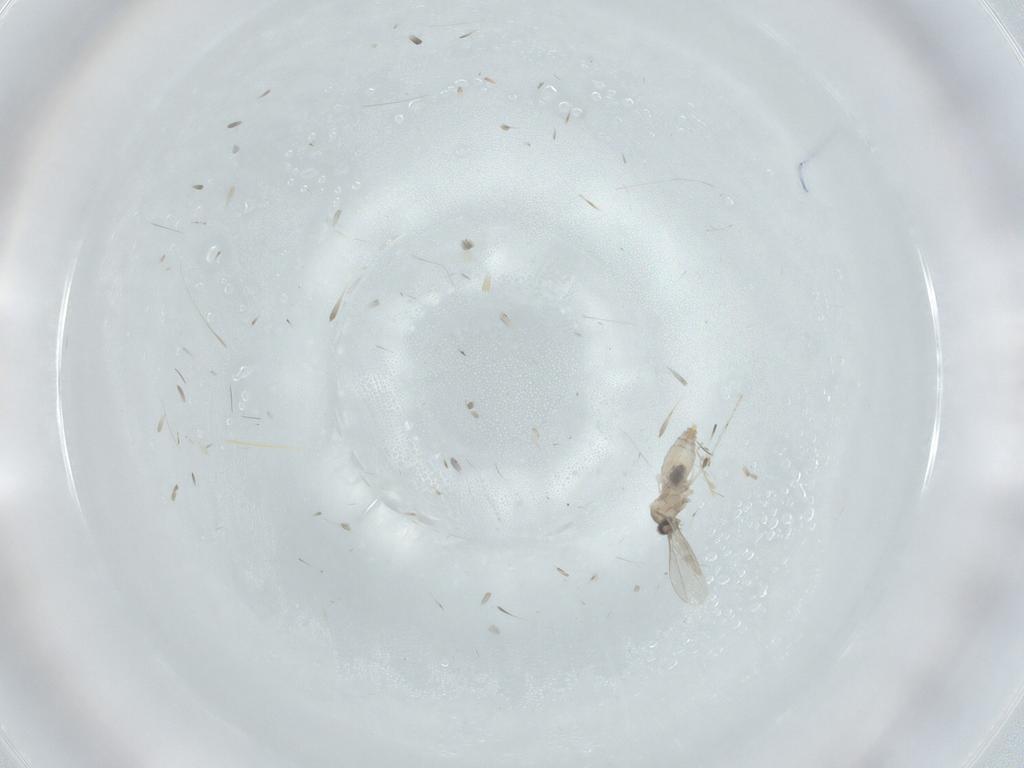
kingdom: Animalia
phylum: Arthropoda
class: Insecta
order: Diptera
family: Cecidomyiidae
